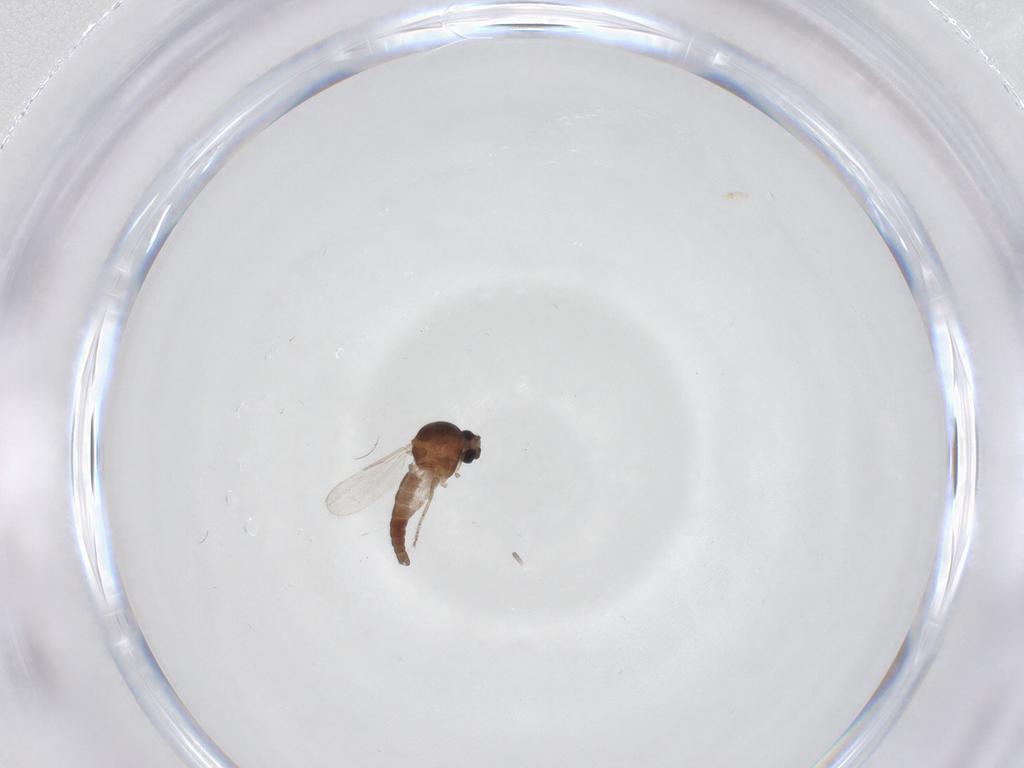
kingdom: Animalia
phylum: Arthropoda
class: Insecta
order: Diptera
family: Ceratopogonidae
